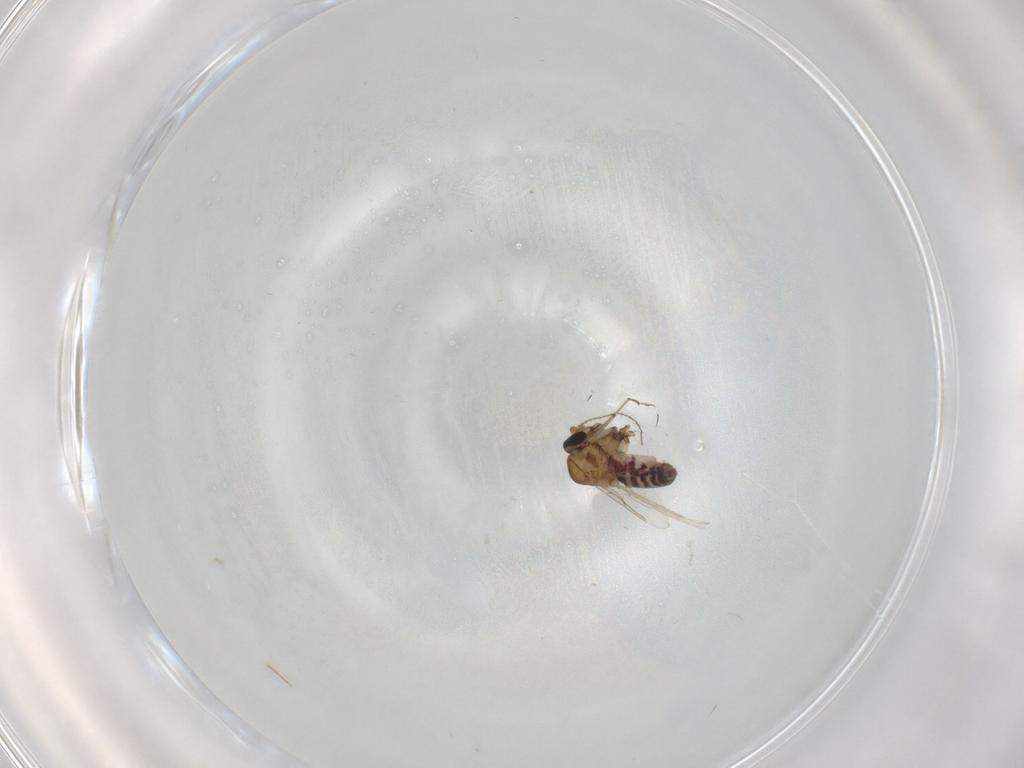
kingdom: Animalia
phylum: Arthropoda
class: Insecta
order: Diptera
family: Ceratopogonidae
